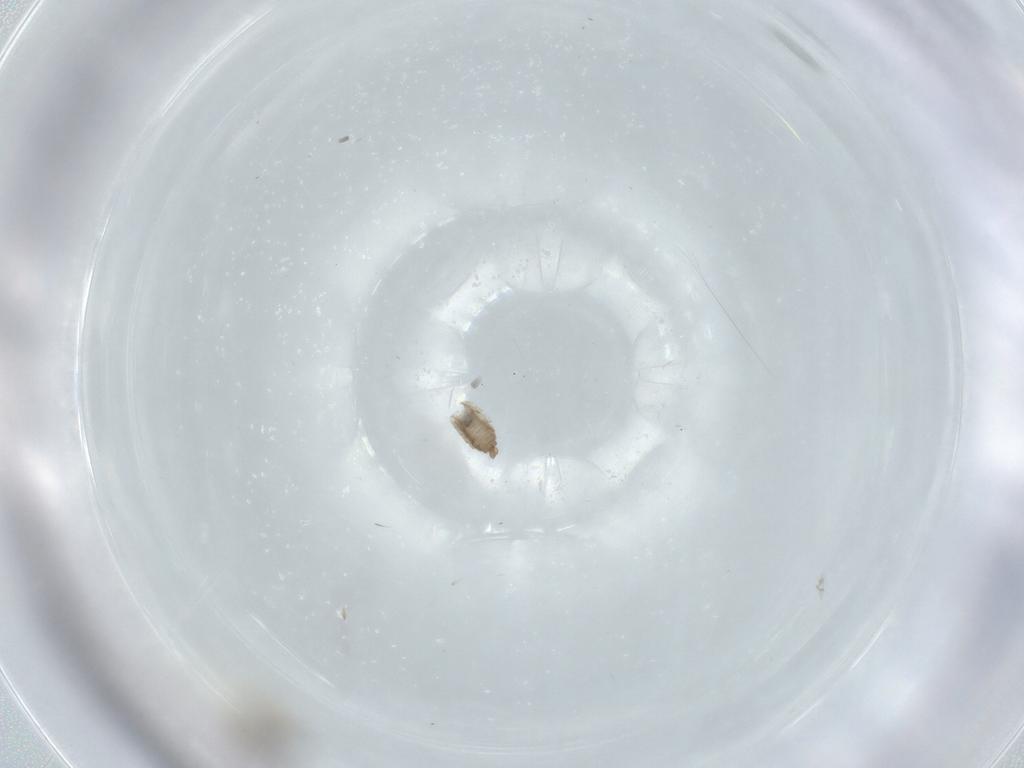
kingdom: Animalia
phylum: Arthropoda
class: Insecta
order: Diptera
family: Cecidomyiidae
